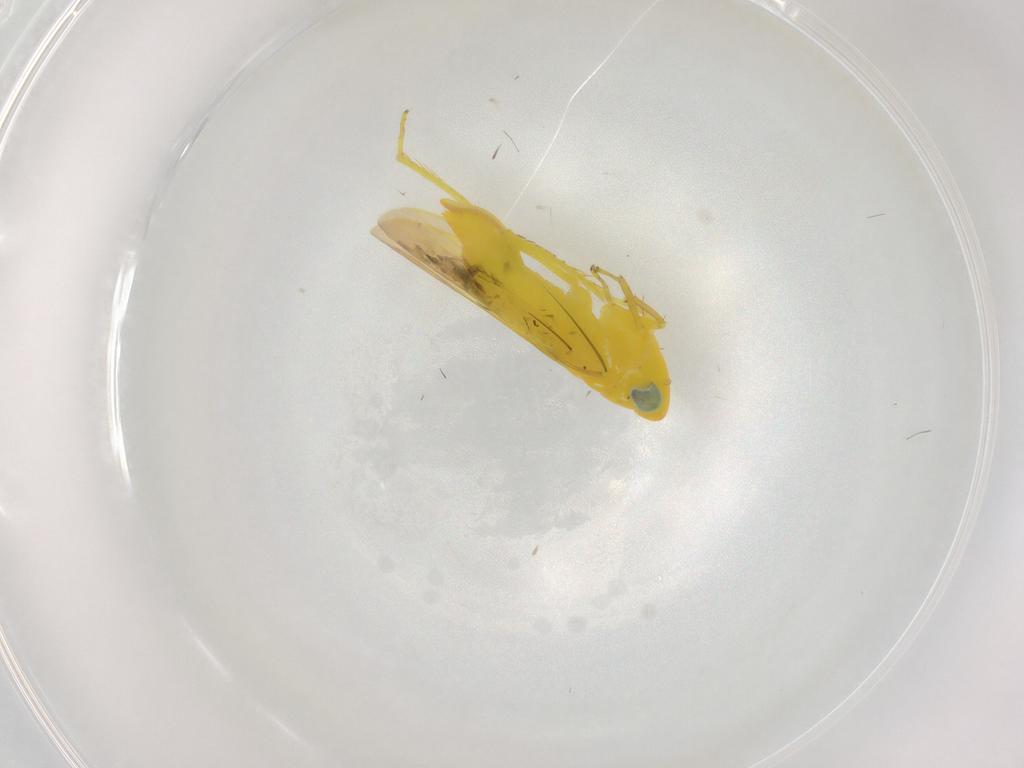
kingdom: Animalia
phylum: Arthropoda
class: Insecta
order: Hemiptera
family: Cicadellidae
